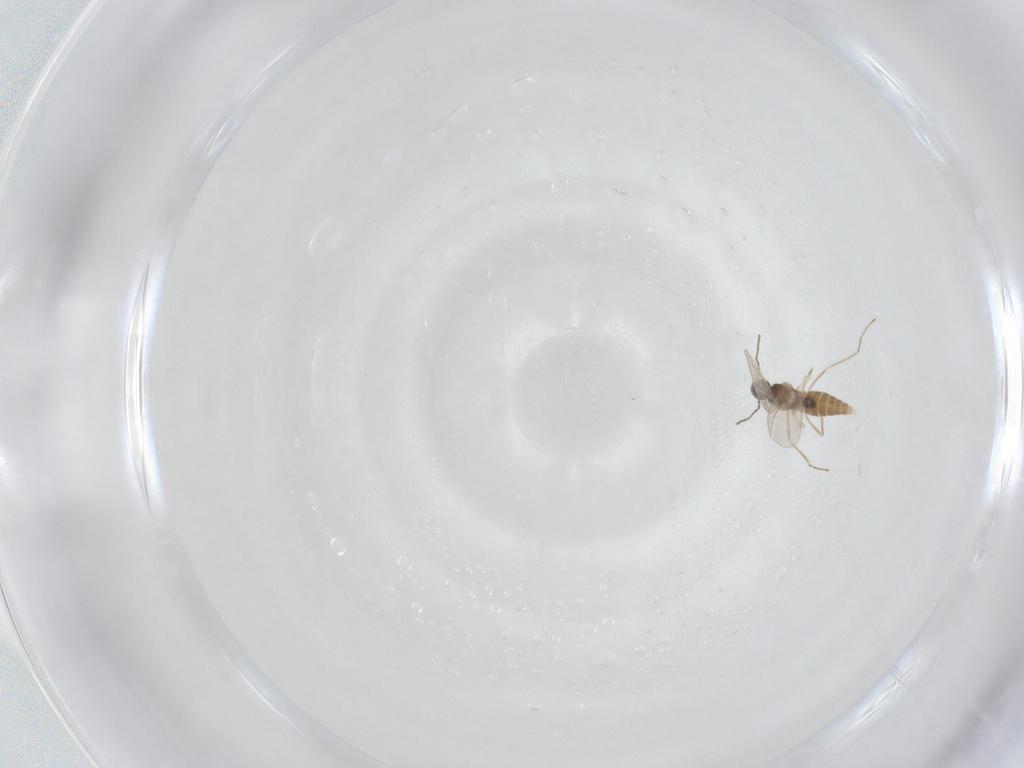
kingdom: Animalia
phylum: Arthropoda
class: Insecta
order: Diptera
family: Cecidomyiidae
